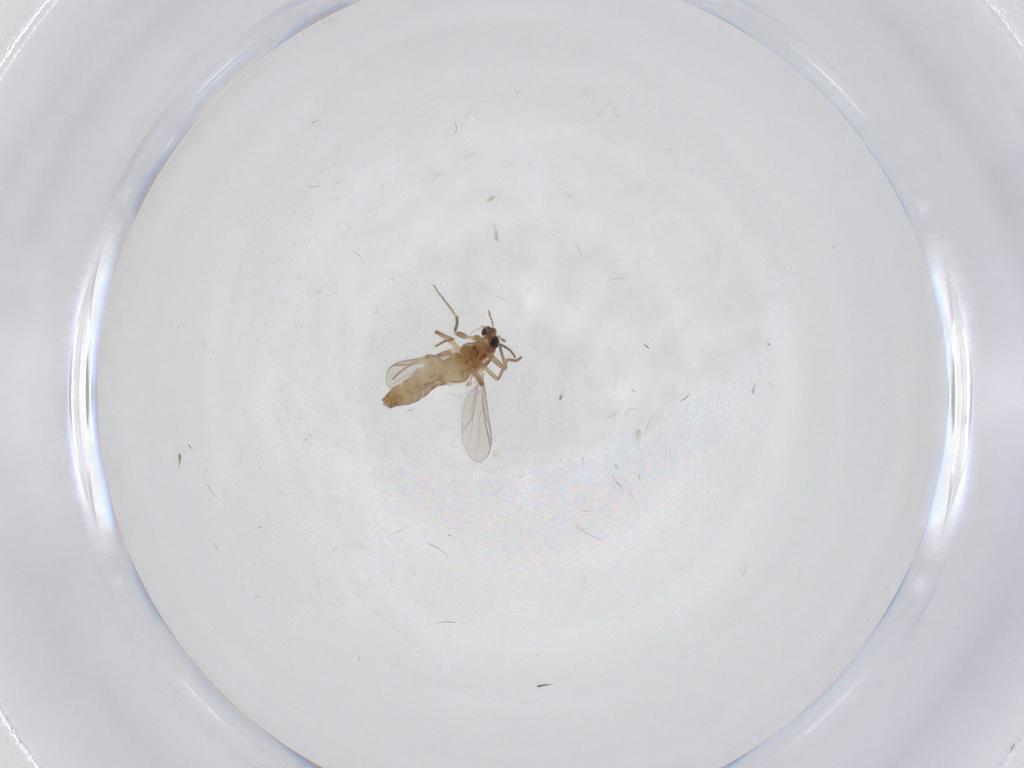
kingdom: Animalia
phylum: Arthropoda
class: Insecta
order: Diptera
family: Chironomidae
